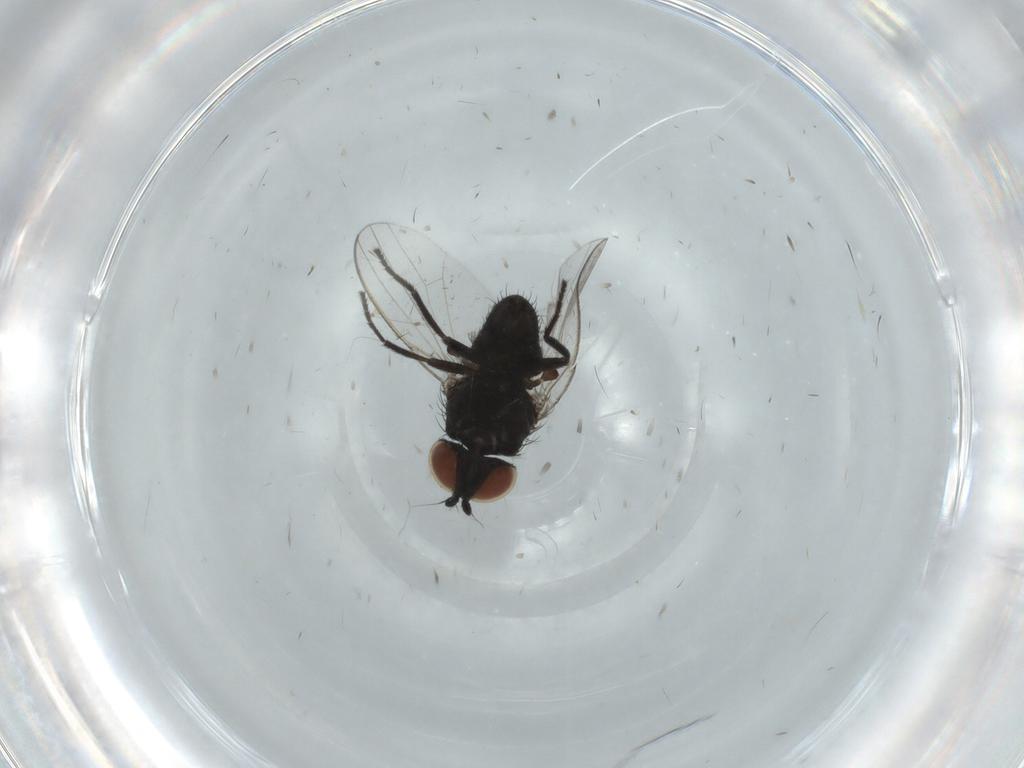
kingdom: Animalia
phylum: Arthropoda
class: Insecta
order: Diptera
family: Milichiidae
